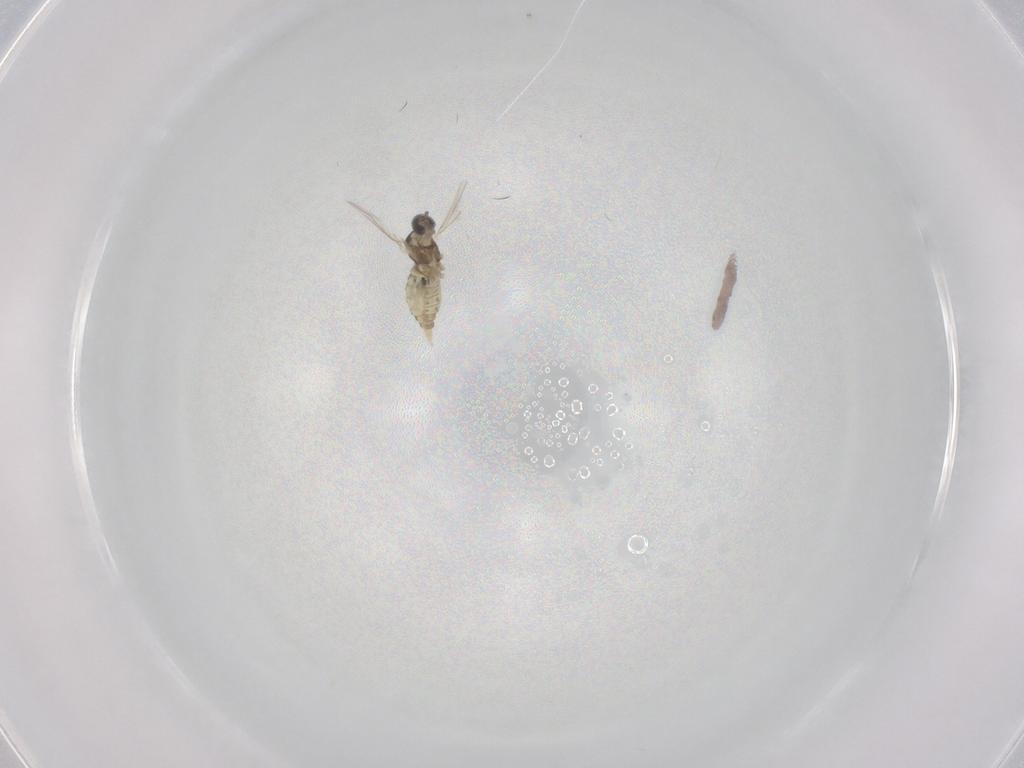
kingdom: Animalia
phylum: Arthropoda
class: Insecta
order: Diptera
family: Cecidomyiidae
